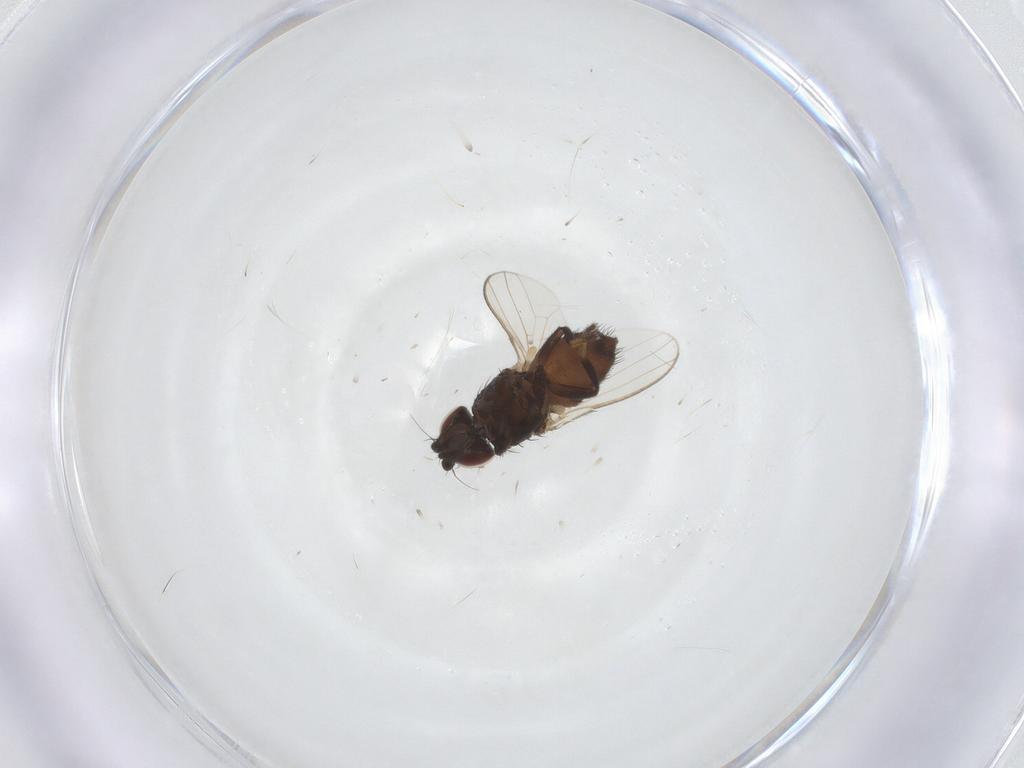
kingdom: Animalia
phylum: Arthropoda
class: Insecta
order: Diptera
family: Milichiidae
